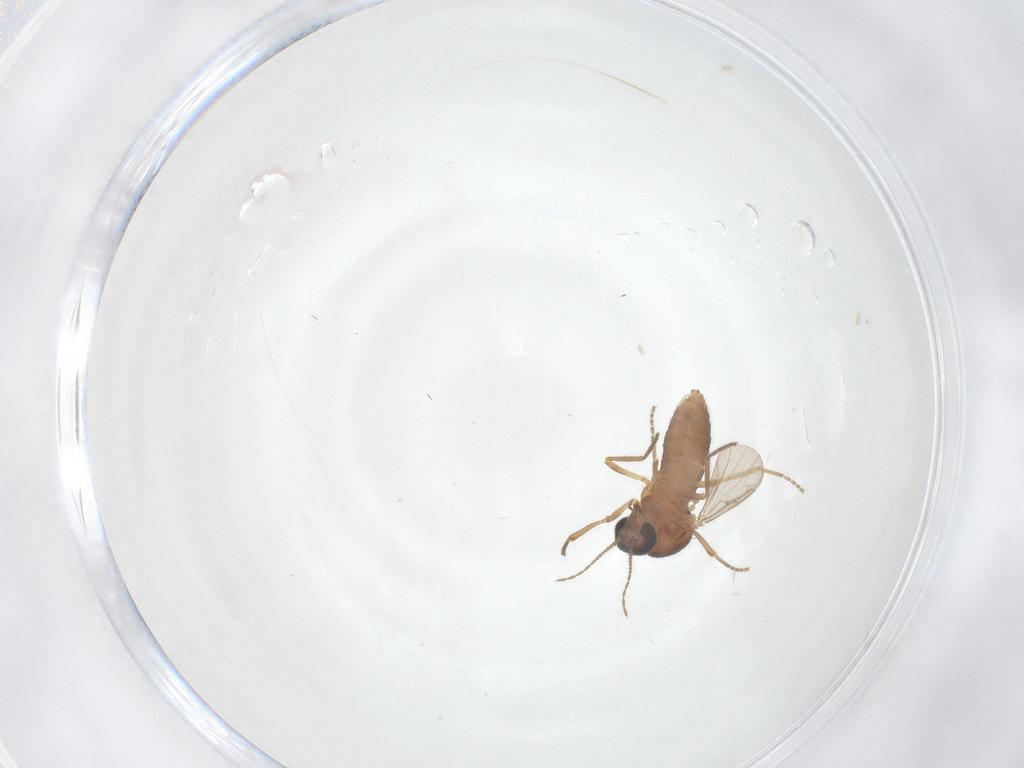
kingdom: Animalia
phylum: Arthropoda
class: Insecta
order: Diptera
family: Ceratopogonidae
